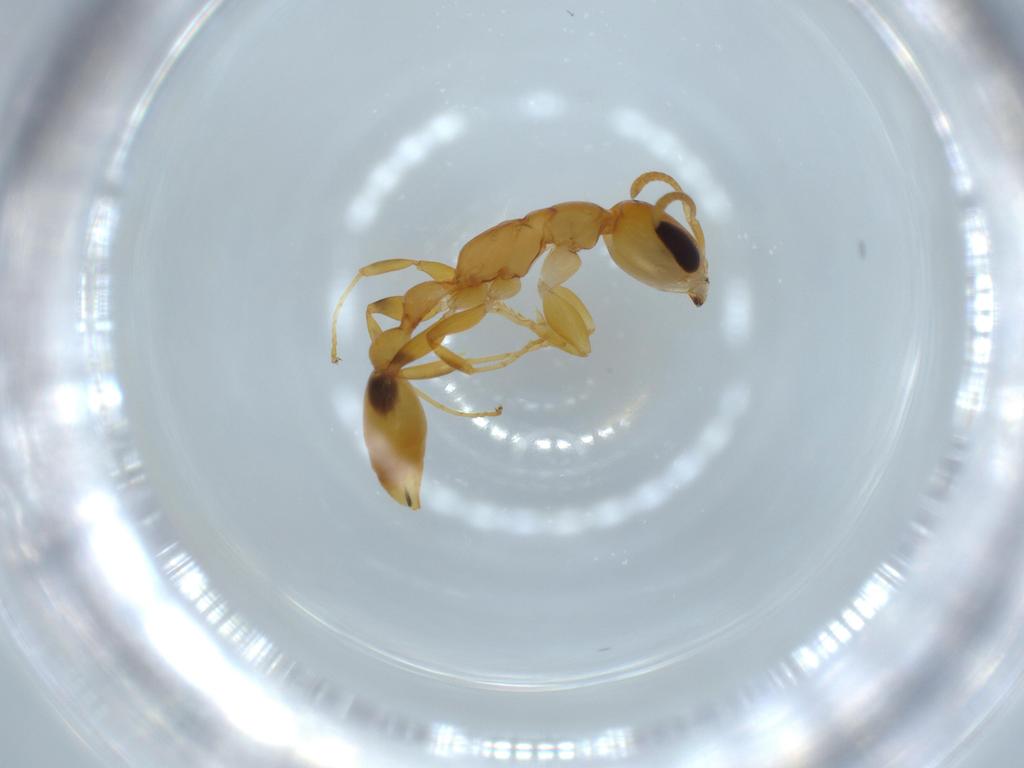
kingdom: Animalia
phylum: Arthropoda
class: Insecta
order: Hymenoptera
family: Formicidae
